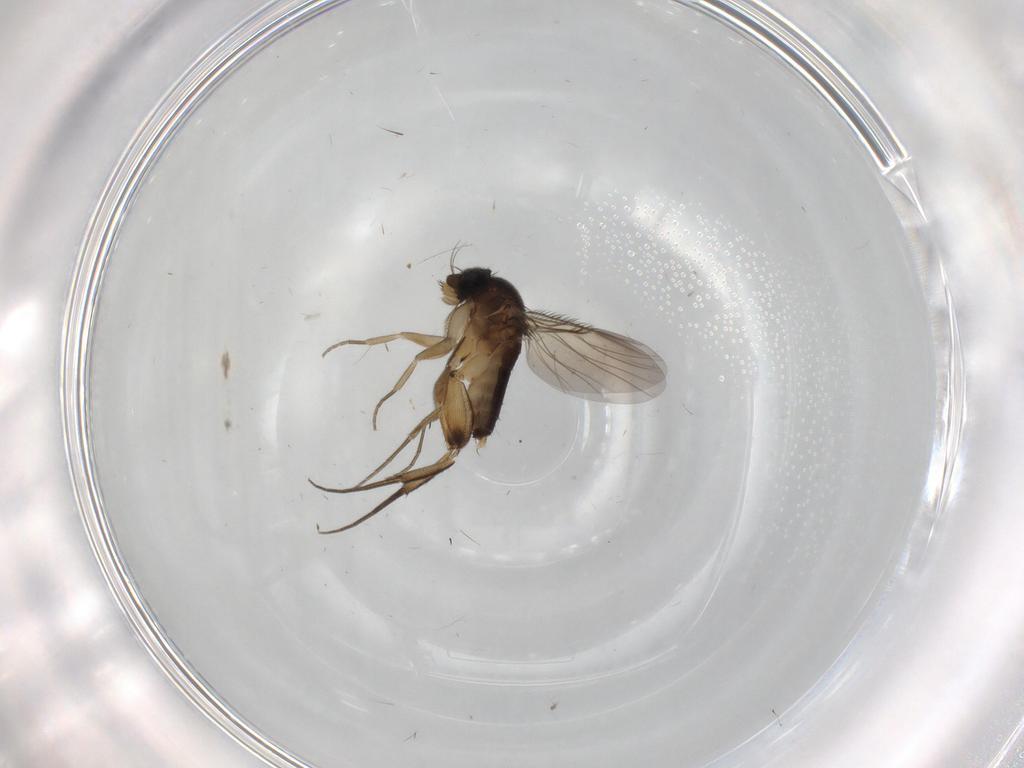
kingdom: Animalia
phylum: Arthropoda
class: Insecta
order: Diptera
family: Phoridae
